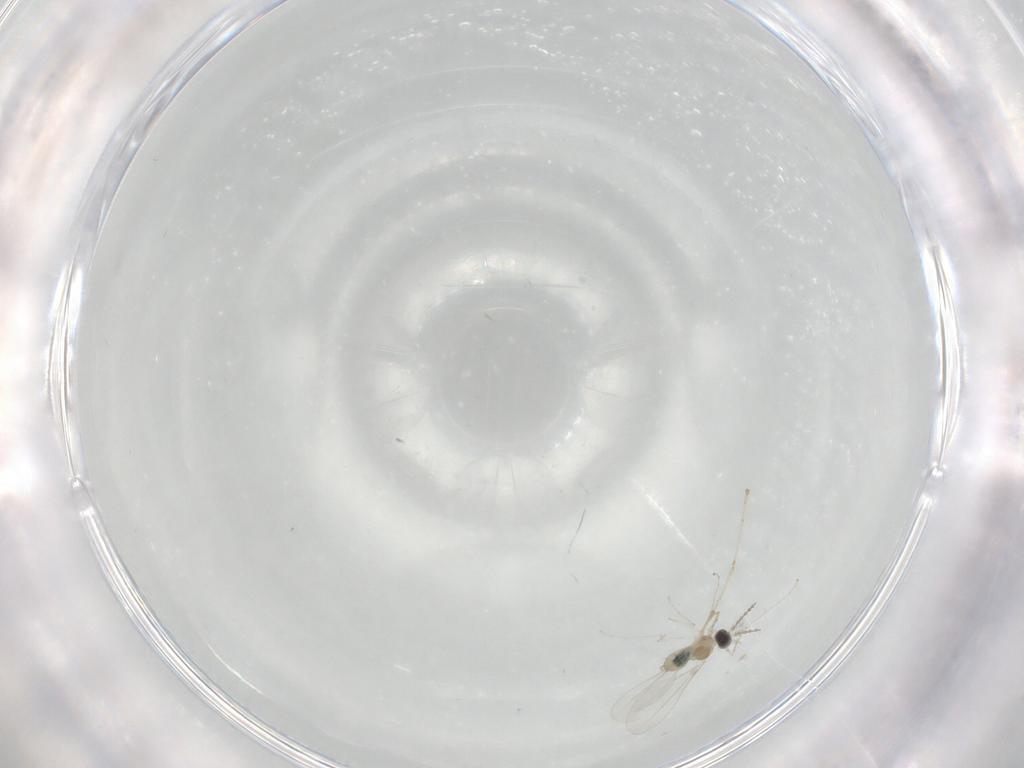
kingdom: Animalia
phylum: Arthropoda
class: Insecta
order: Diptera
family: Cecidomyiidae
